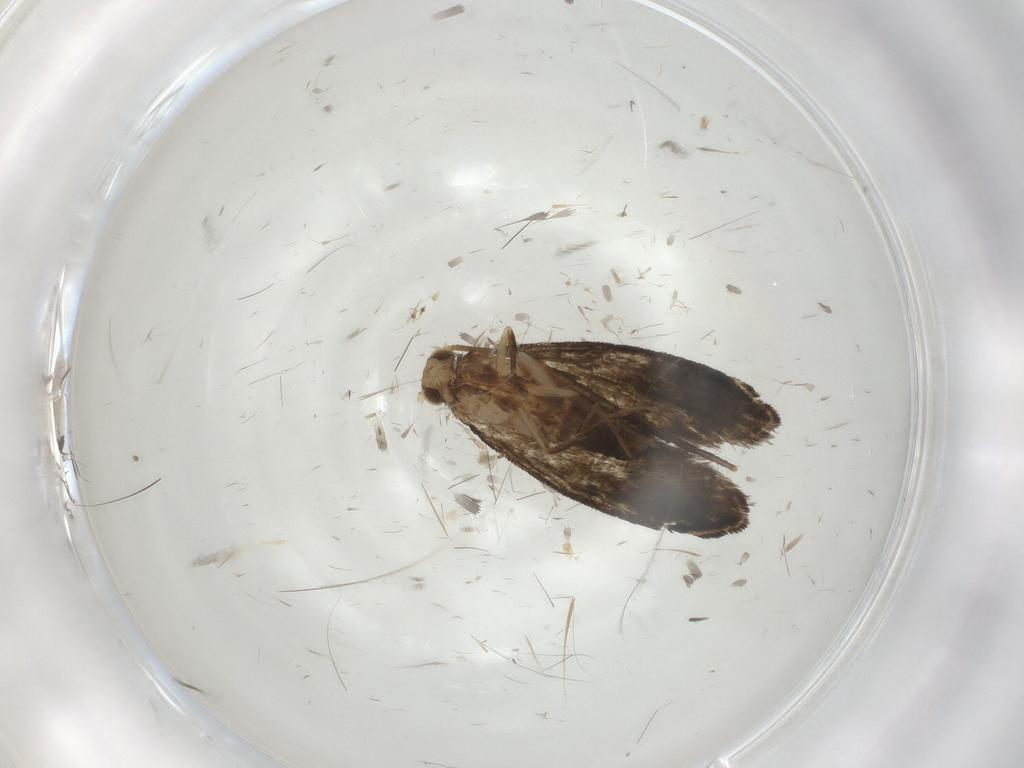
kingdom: Animalia
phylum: Arthropoda
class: Insecta
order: Lepidoptera
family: Tineidae
